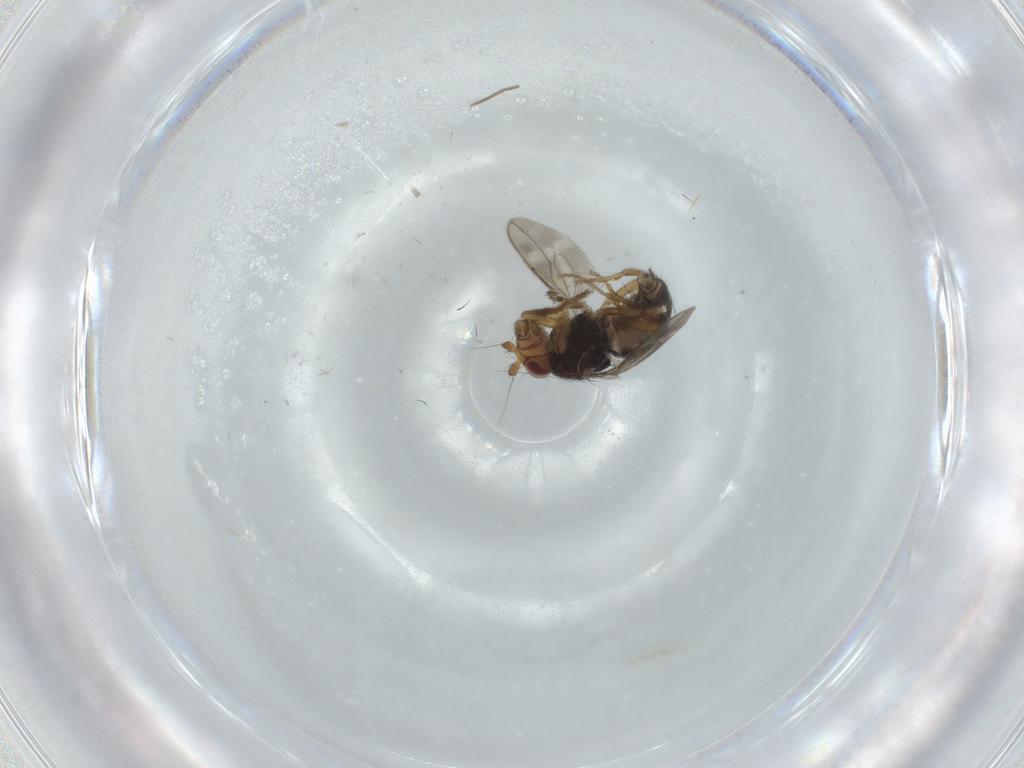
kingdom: Animalia
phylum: Arthropoda
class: Insecta
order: Diptera
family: Sphaeroceridae
